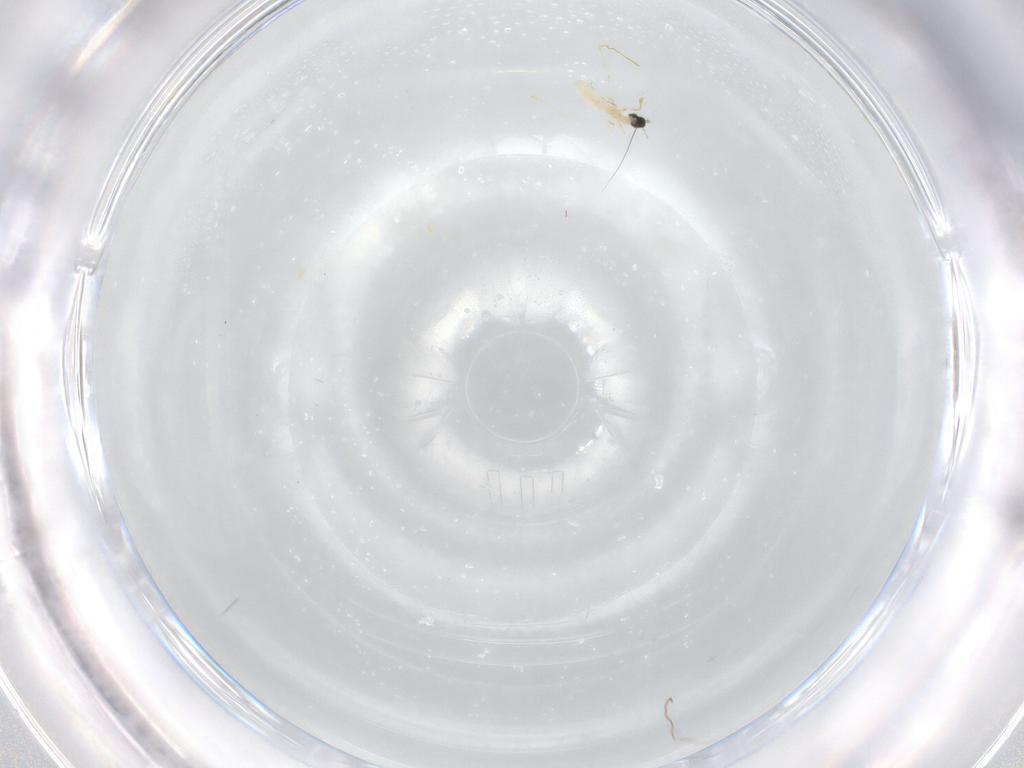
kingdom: Animalia
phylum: Arthropoda
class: Insecta
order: Diptera
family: Cecidomyiidae
